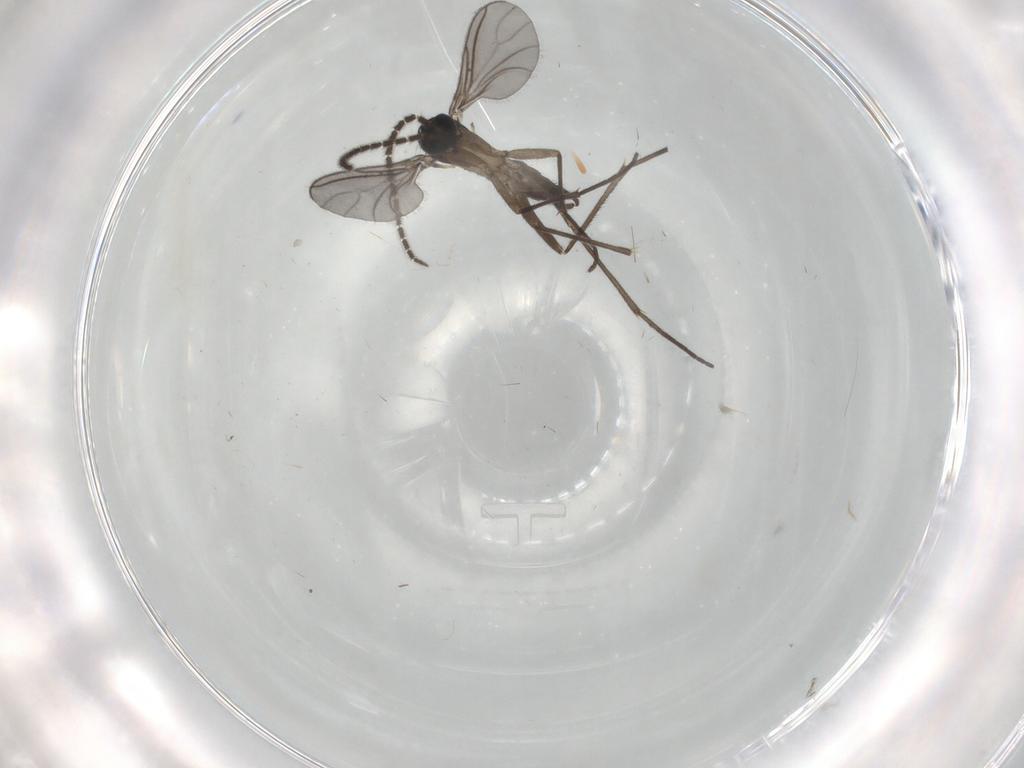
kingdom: Animalia
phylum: Arthropoda
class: Insecta
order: Diptera
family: Sciaridae
